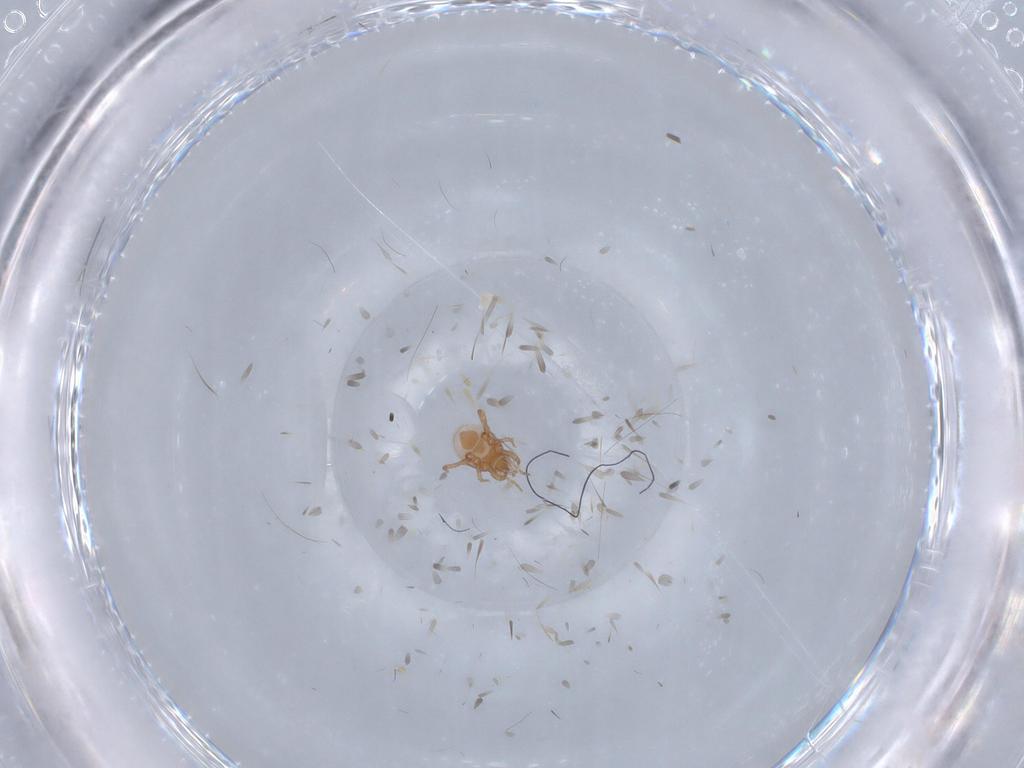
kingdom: Animalia
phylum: Arthropoda
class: Arachnida
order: Mesostigmata
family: Macrochelidae
